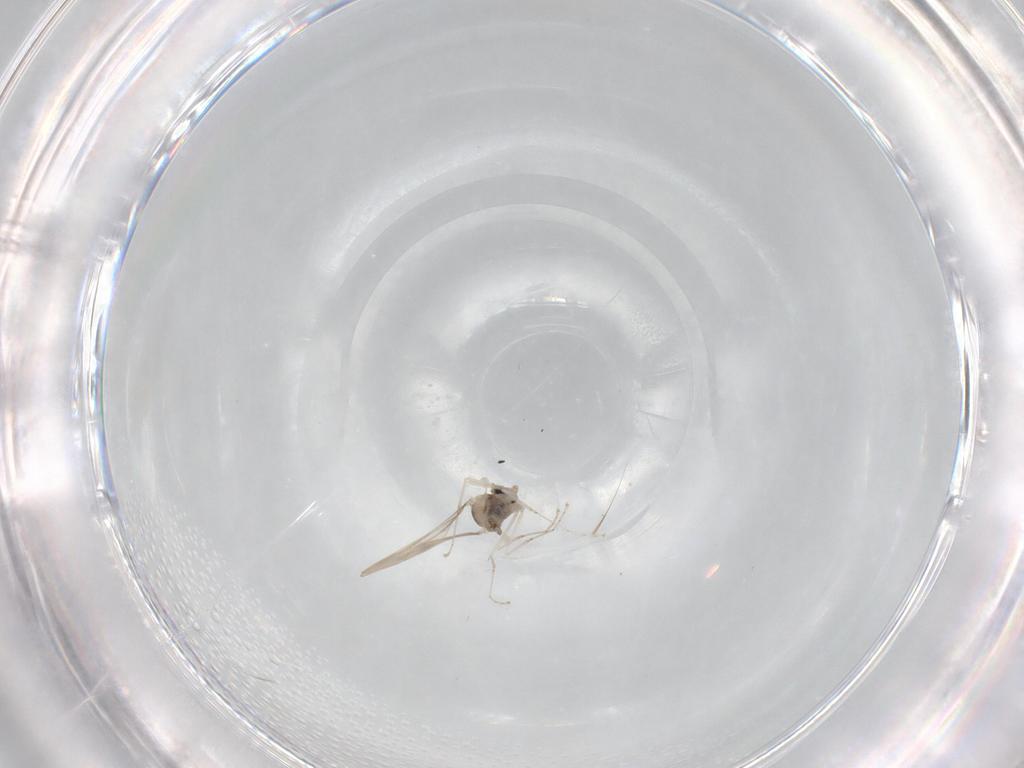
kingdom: Animalia
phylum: Arthropoda
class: Insecta
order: Diptera
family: Cecidomyiidae
